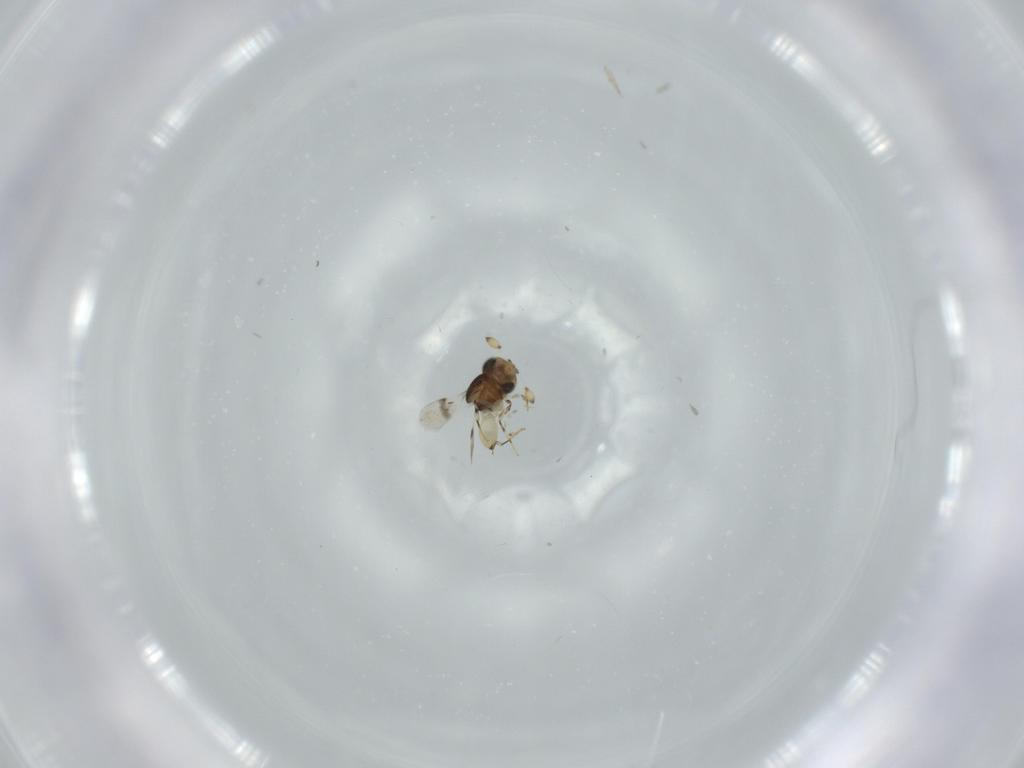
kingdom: Animalia
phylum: Arthropoda
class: Insecta
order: Hymenoptera
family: Scelionidae
